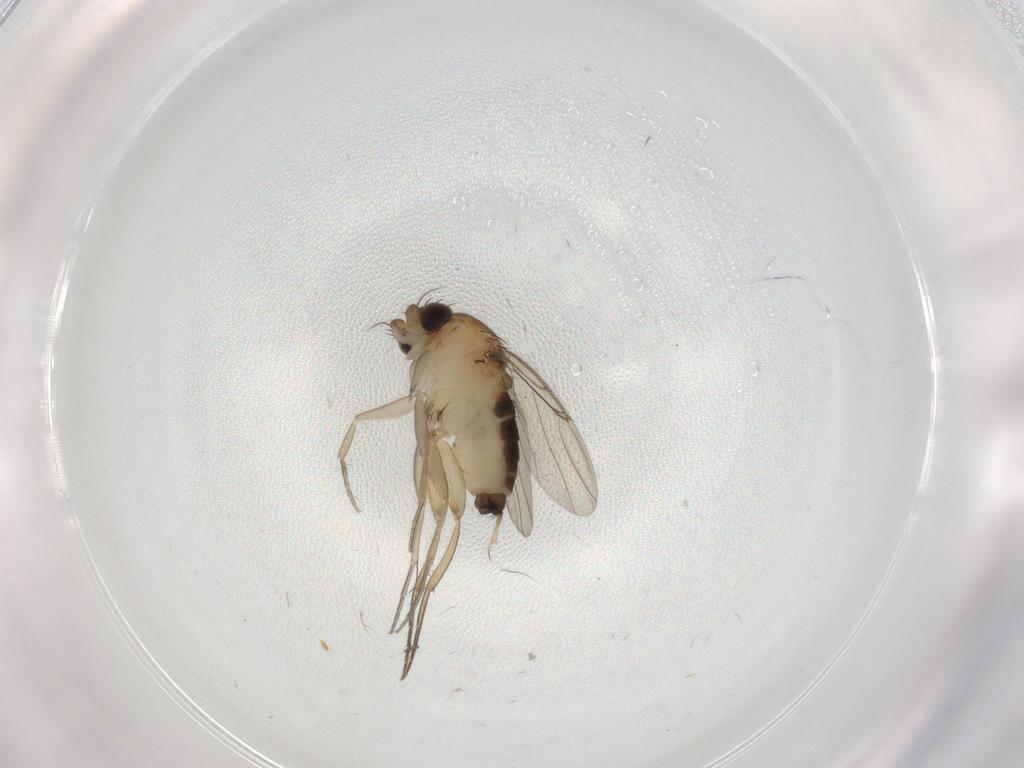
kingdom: Animalia
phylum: Arthropoda
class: Insecta
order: Diptera
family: Phoridae
